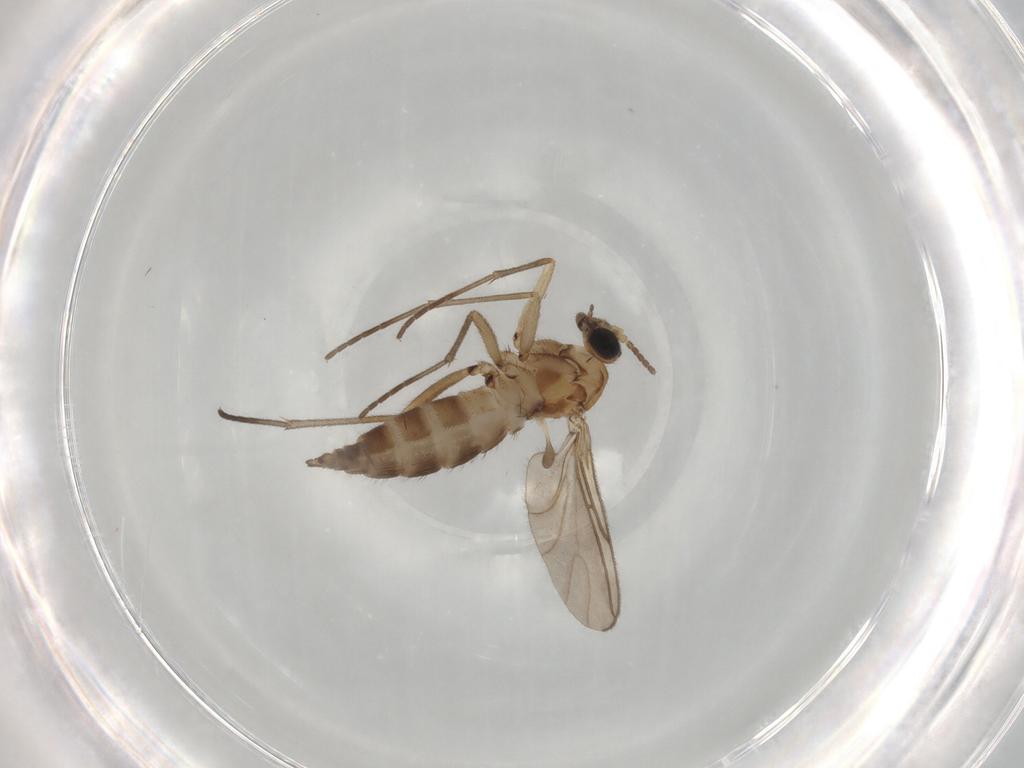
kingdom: Animalia
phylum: Arthropoda
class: Insecta
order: Diptera
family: Sciaridae
